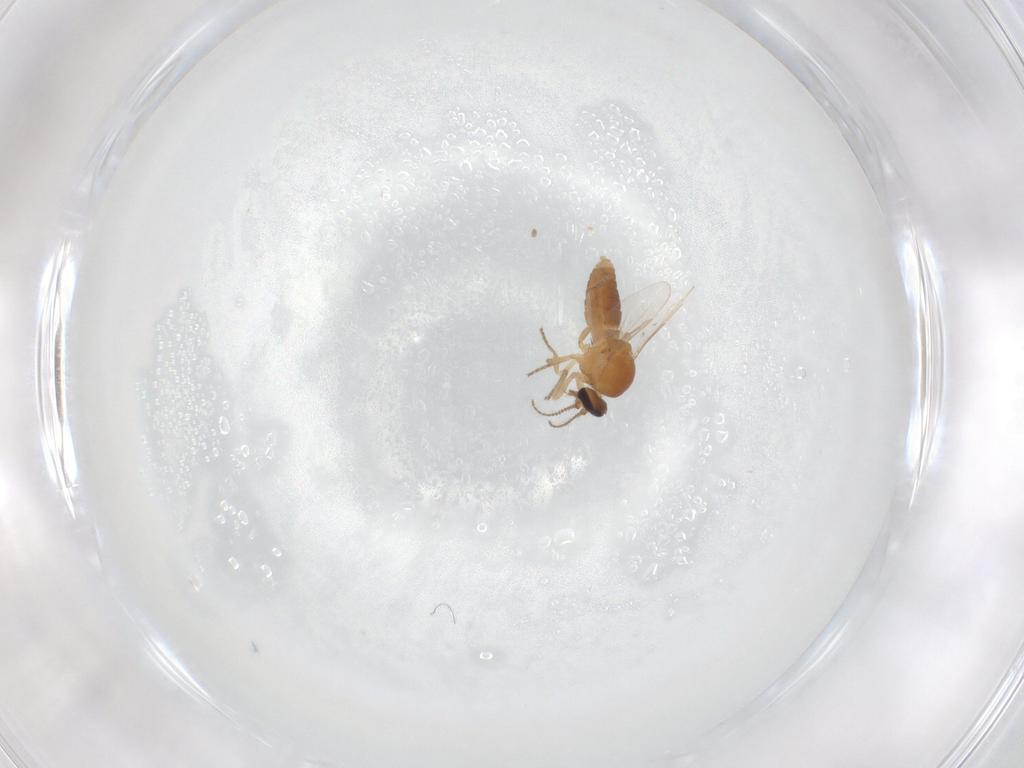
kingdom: Animalia
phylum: Arthropoda
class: Insecta
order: Diptera
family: Ceratopogonidae
